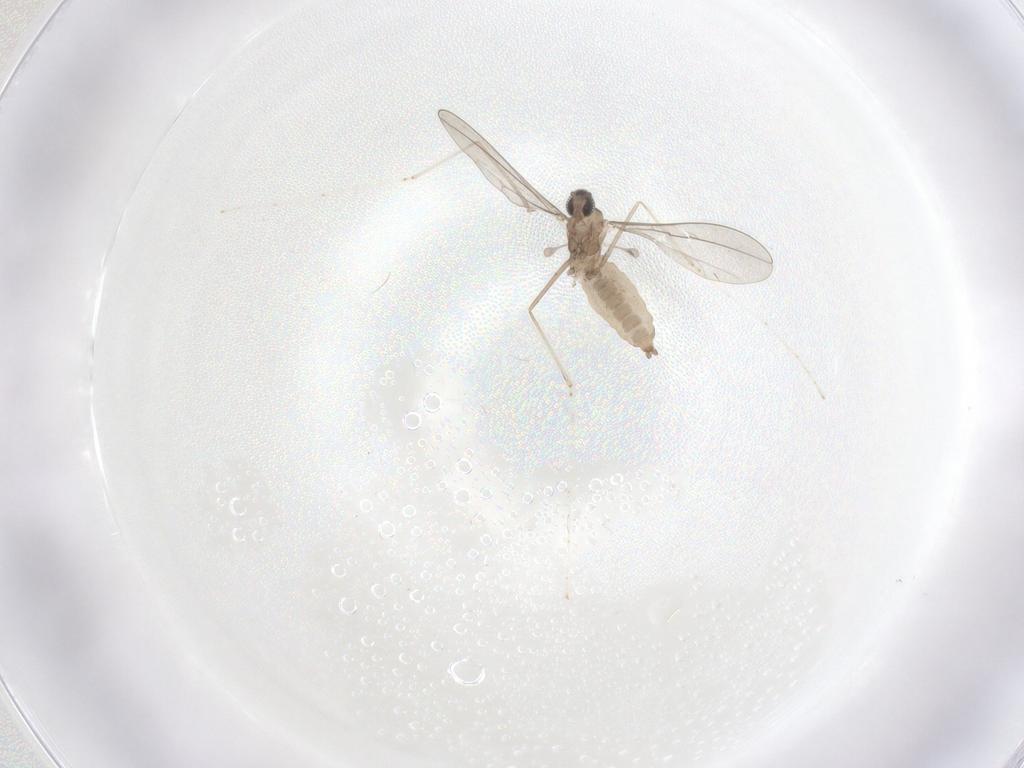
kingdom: Animalia
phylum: Arthropoda
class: Insecta
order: Diptera
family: Cecidomyiidae
